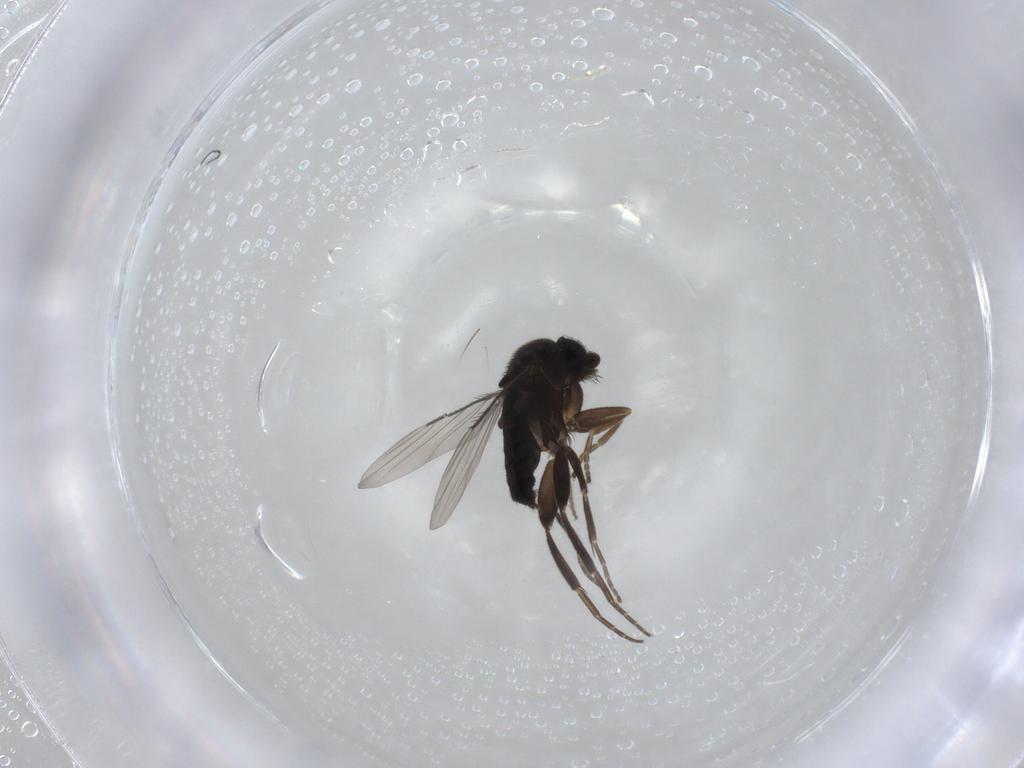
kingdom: Animalia
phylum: Arthropoda
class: Insecta
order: Diptera
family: Phoridae
